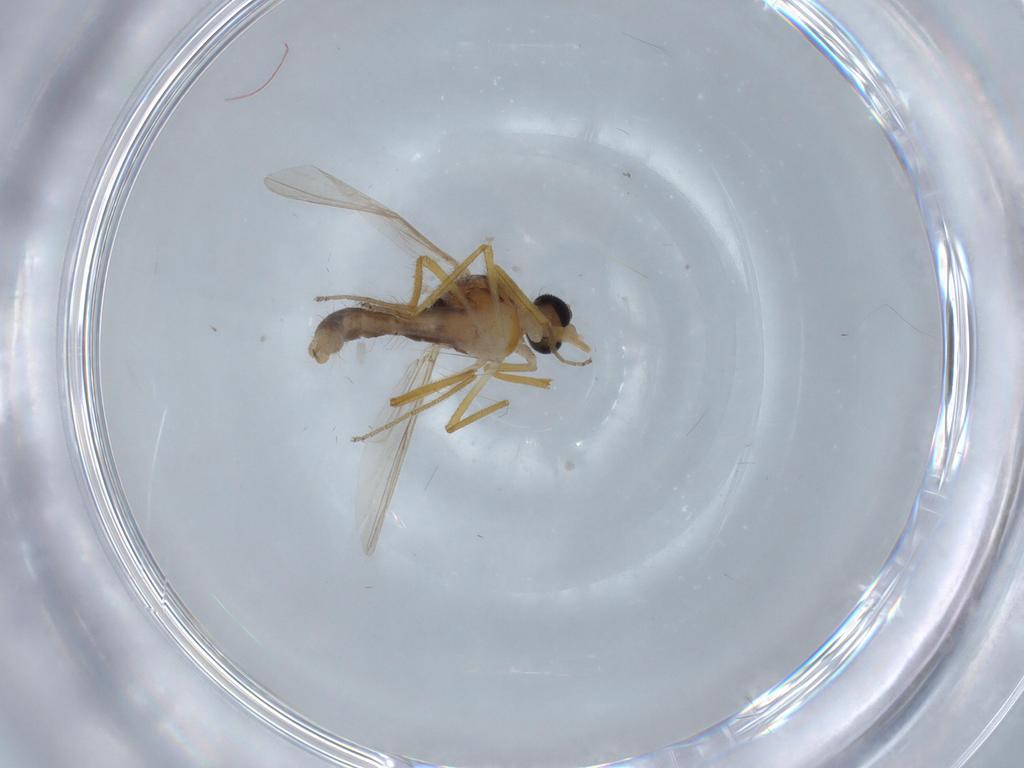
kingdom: Animalia
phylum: Arthropoda
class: Insecta
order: Diptera
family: Ceratopogonidae
